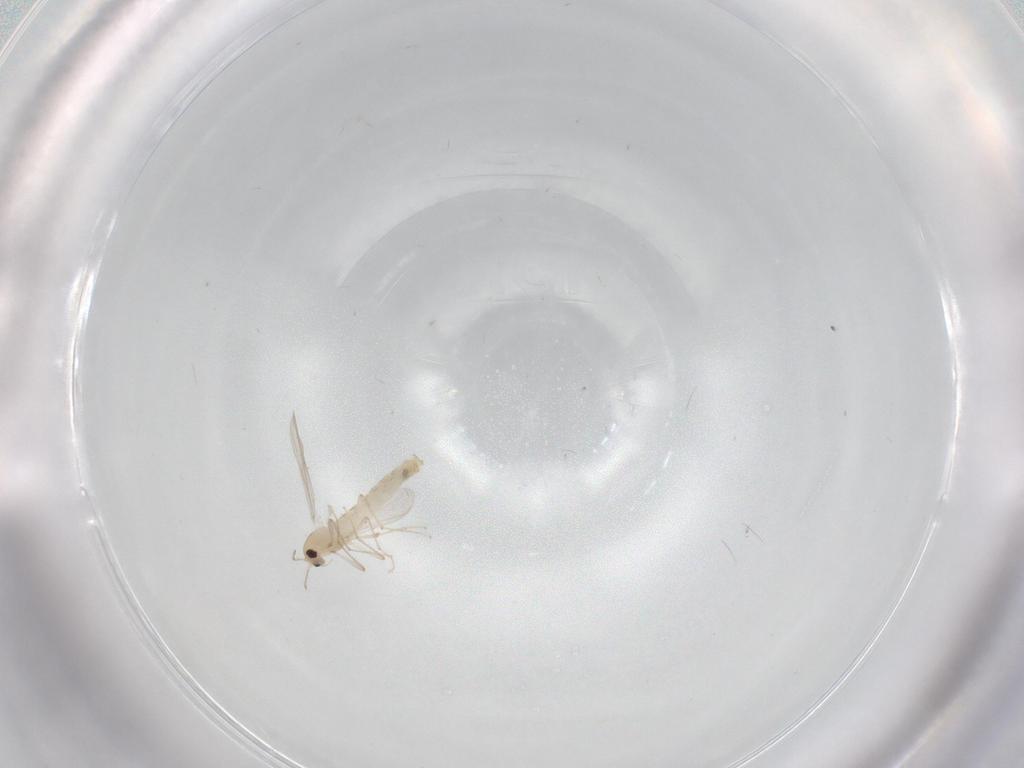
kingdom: Animalia
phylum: Arthropoda
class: Insecta
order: Diptera
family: Chironomidae
